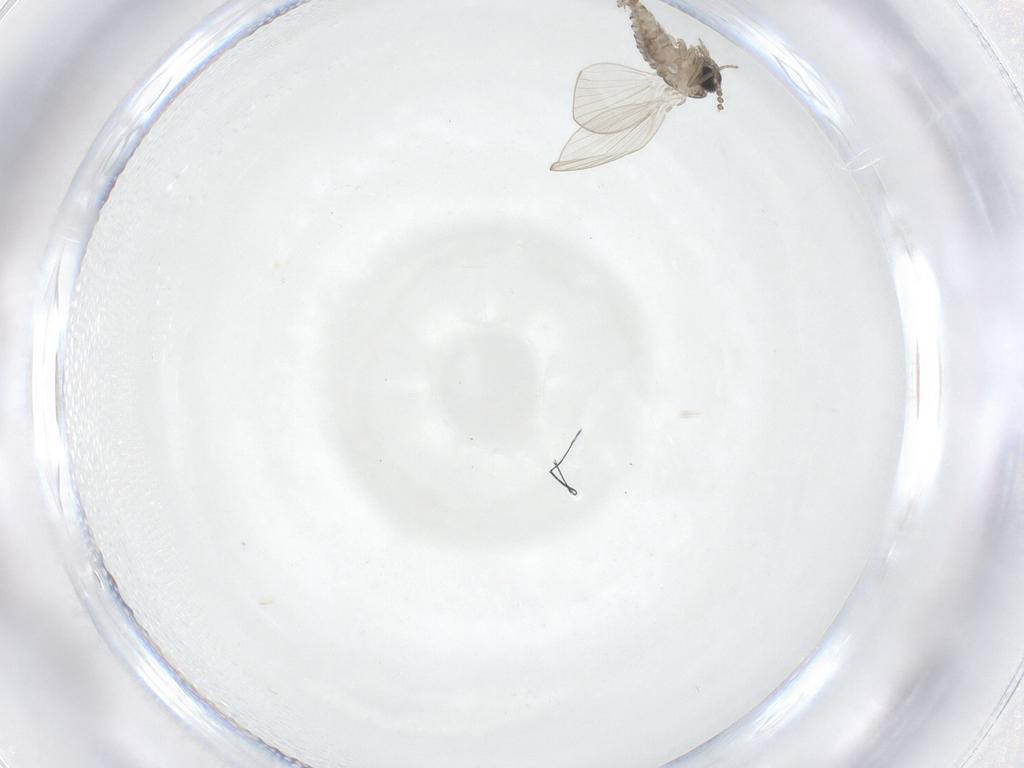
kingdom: Animalia
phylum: Arthropoda
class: Insecta
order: Diptera
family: Psychodidae
